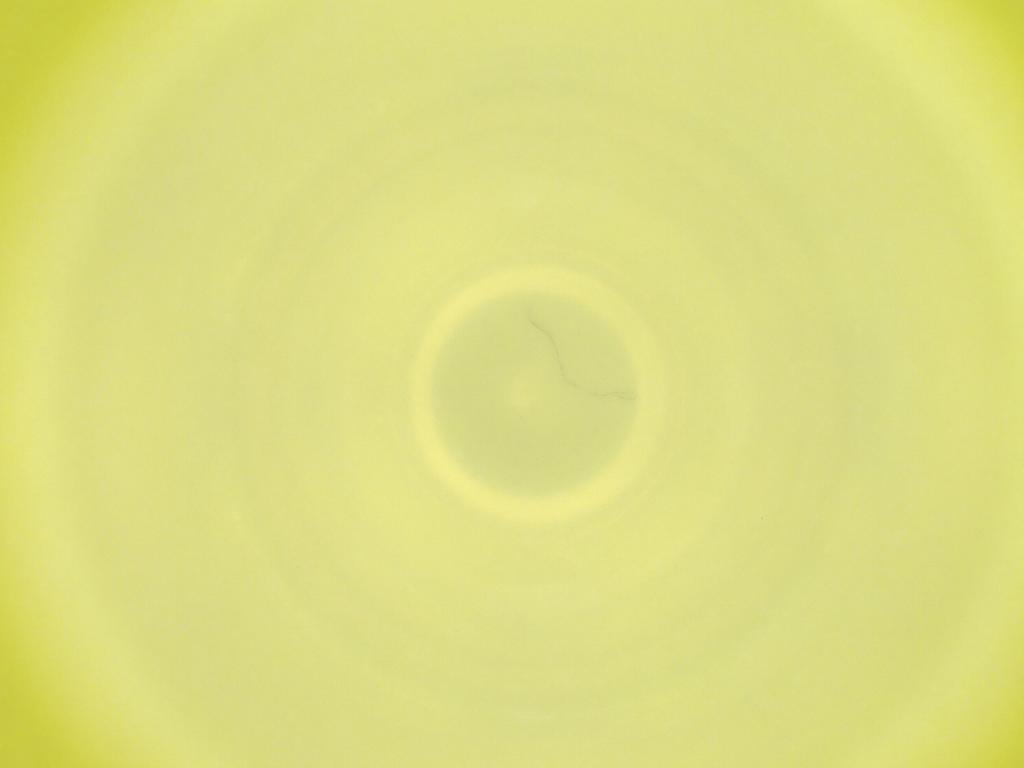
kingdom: Animalia
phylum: Arthropoda
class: Insecta
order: Diptera
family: Cecidomyiidae
